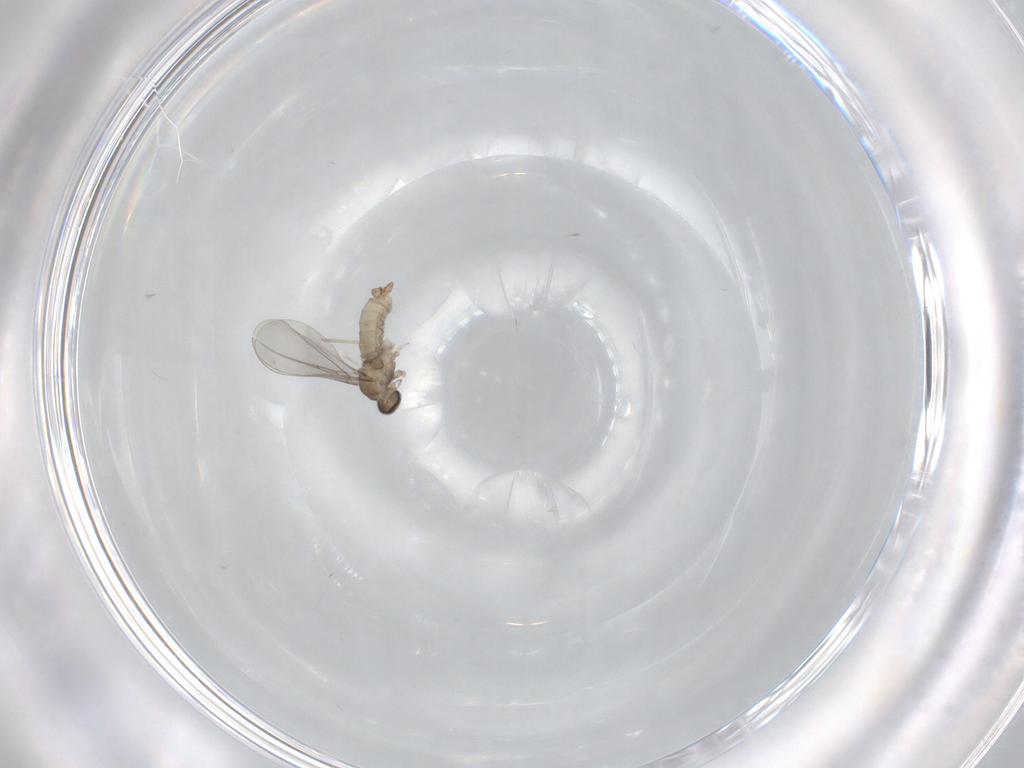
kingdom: Animalia
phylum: Arthropoda
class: Insecta
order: Diptera
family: Cecidomyiidae
